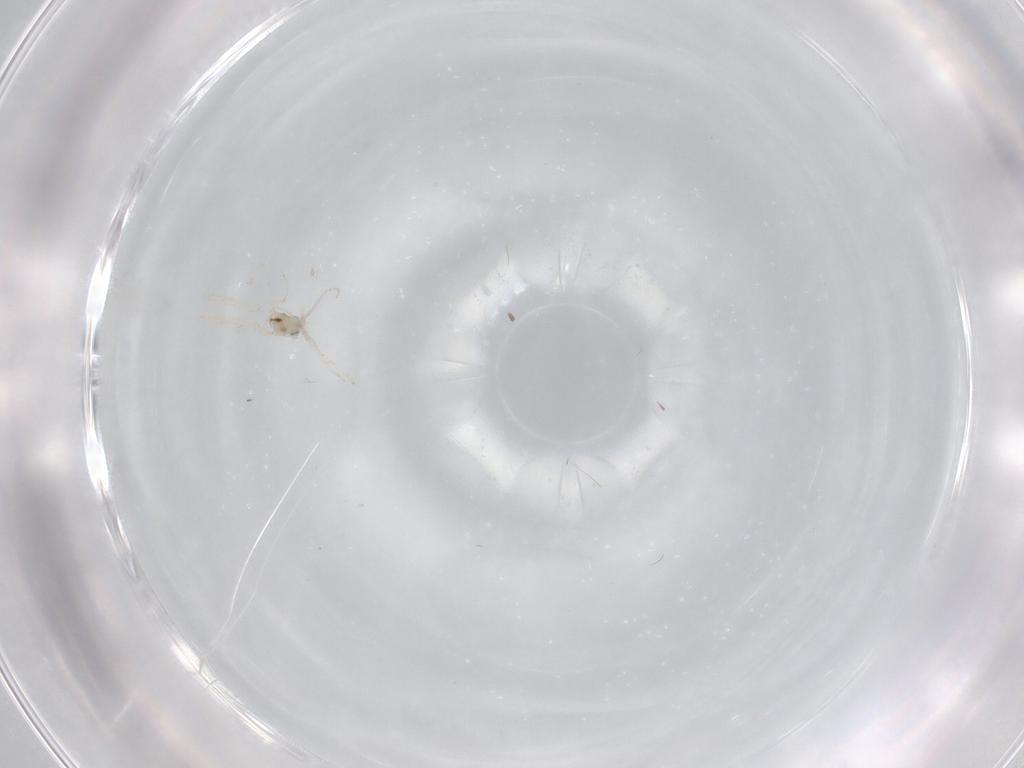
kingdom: Animalia
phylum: Arthropoda
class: Insecta
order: Diptera
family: Cecidomyiidae
